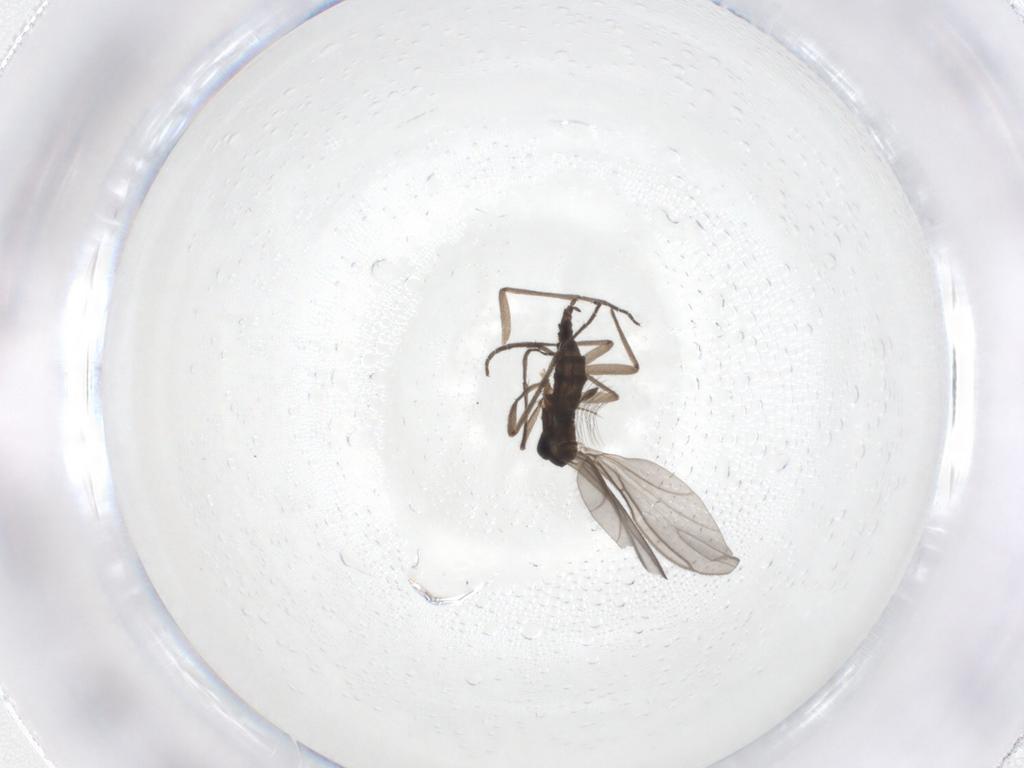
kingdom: Animalia
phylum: Arthropoda
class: Insecta
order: Diptera
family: Sciaridae
